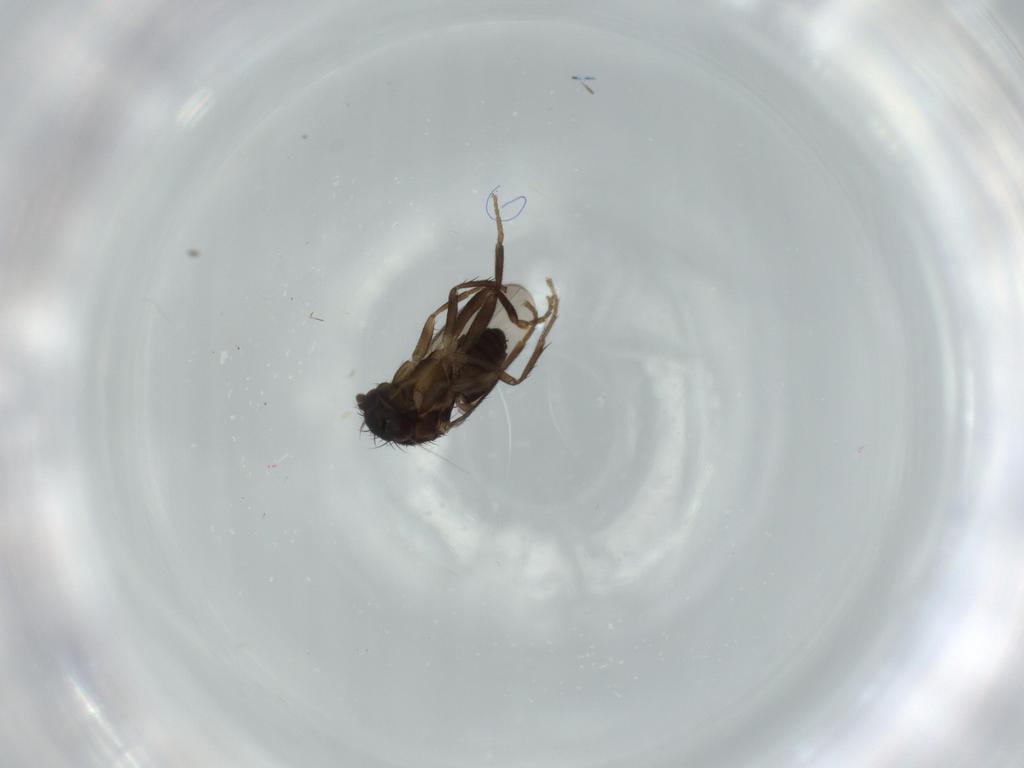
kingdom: Animalia
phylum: Arthropoda
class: Insecta
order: Diptera
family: Sphaeroceridae
